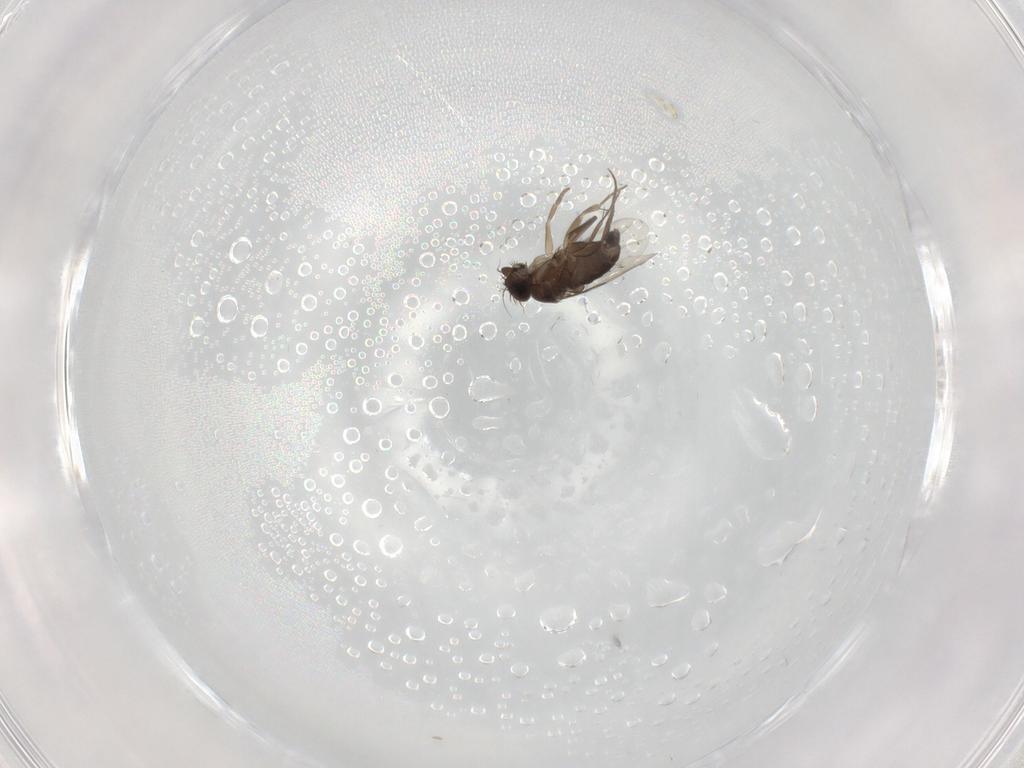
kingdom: Animalia
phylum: Arthropoda
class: Insecta
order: Diptera
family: Phoridae
